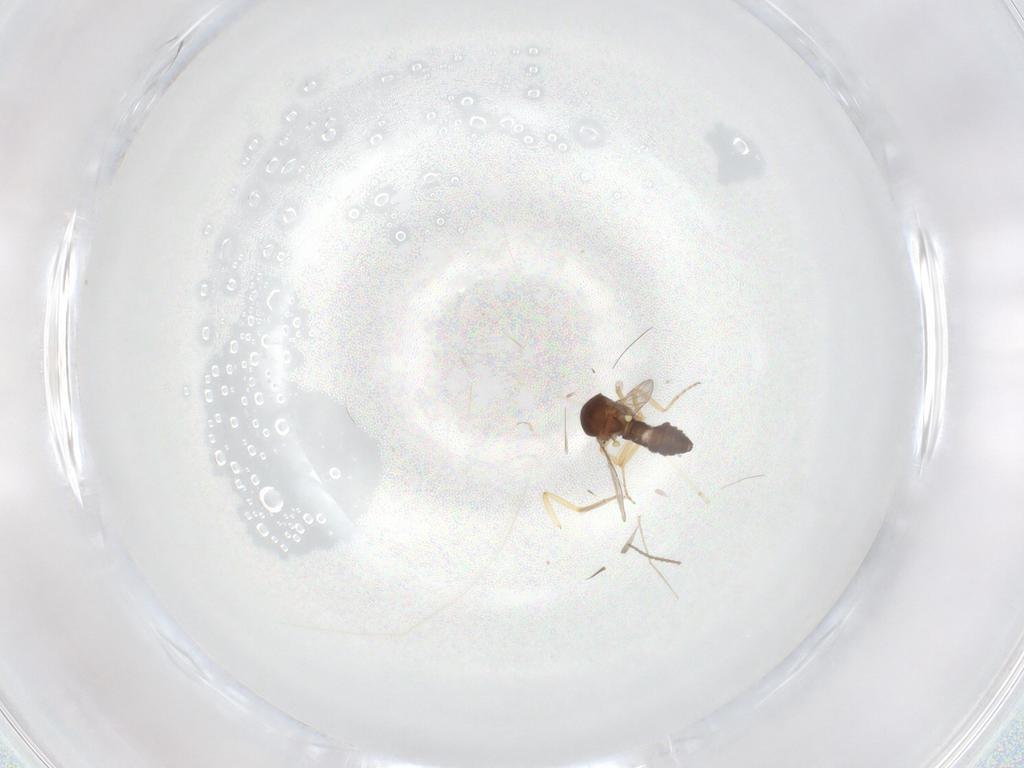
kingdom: Animalia
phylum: Arthropoda
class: Insecta
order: Diptera
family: Ceratopogonidae
